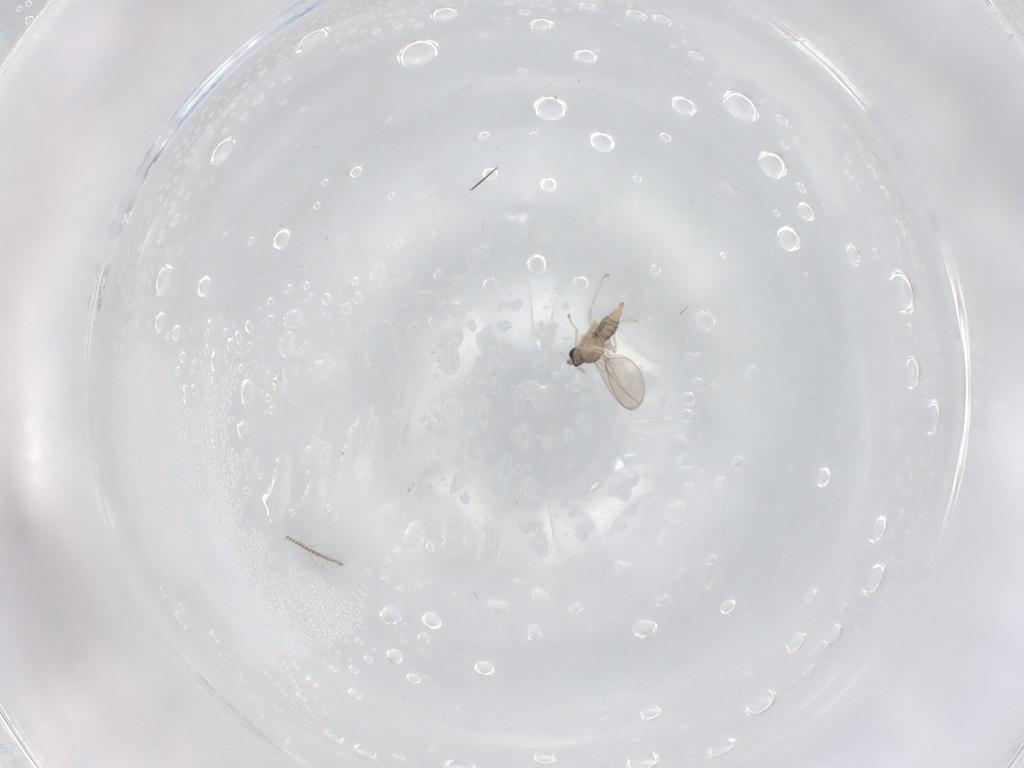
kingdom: Animalia
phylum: Arthropoda
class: Insecta
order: Diptera
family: Chironomidae
